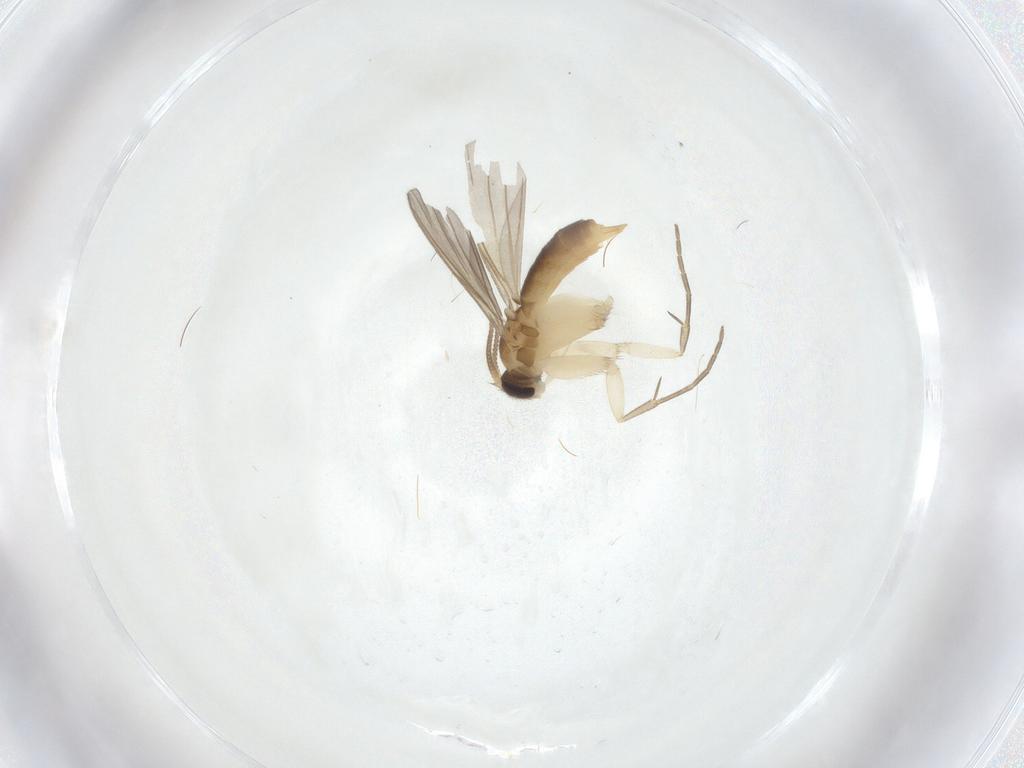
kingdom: Animalia
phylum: Arthropoda
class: Insecta
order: Diptera
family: Mycetophilidae
